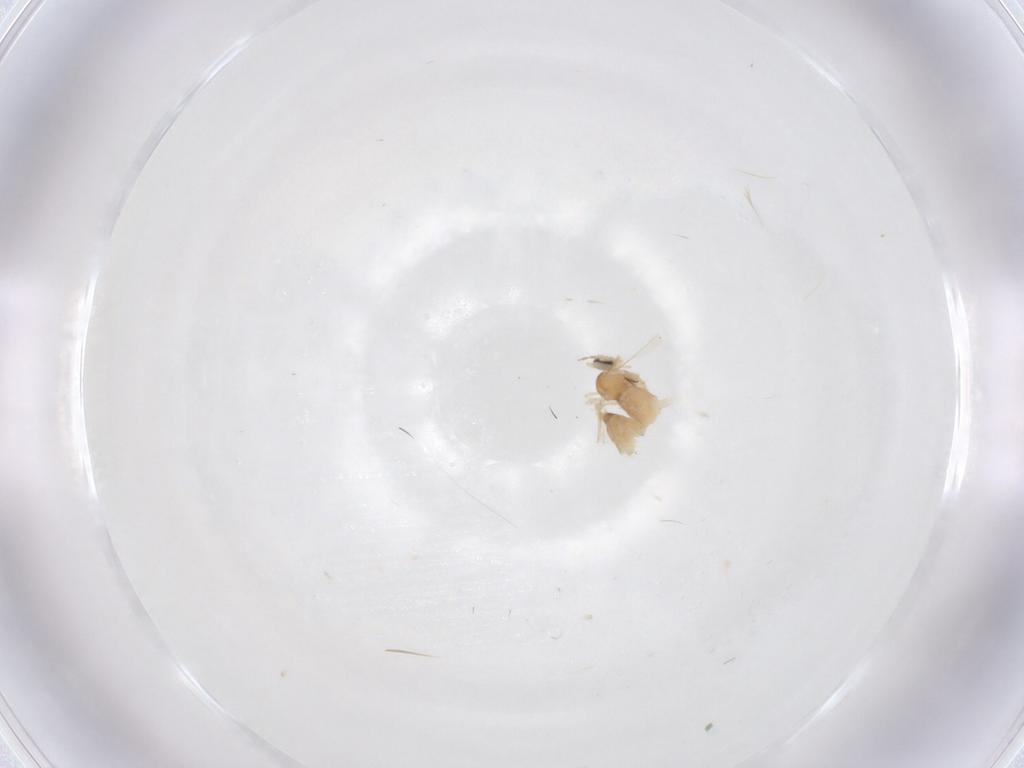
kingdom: Animalia
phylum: Arthropoda
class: Insecta
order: Diptera
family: Cecidomyiidae
